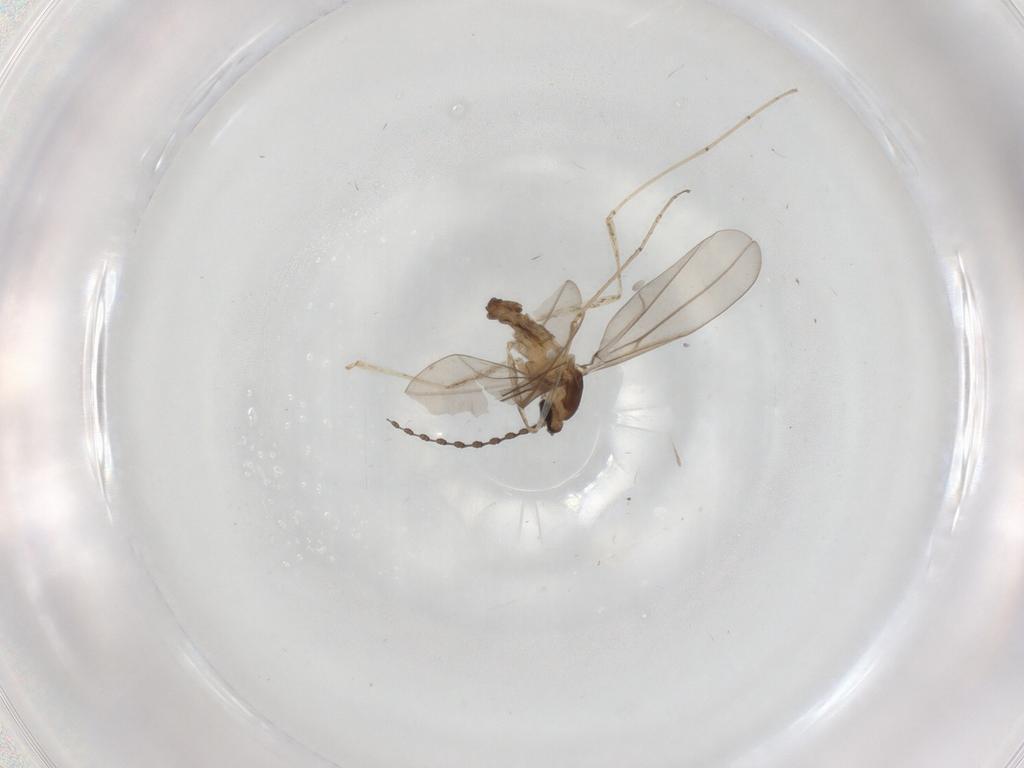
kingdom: Animalia
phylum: Arthropoda
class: Insecta
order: Diptera
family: Cecidomyiidae
